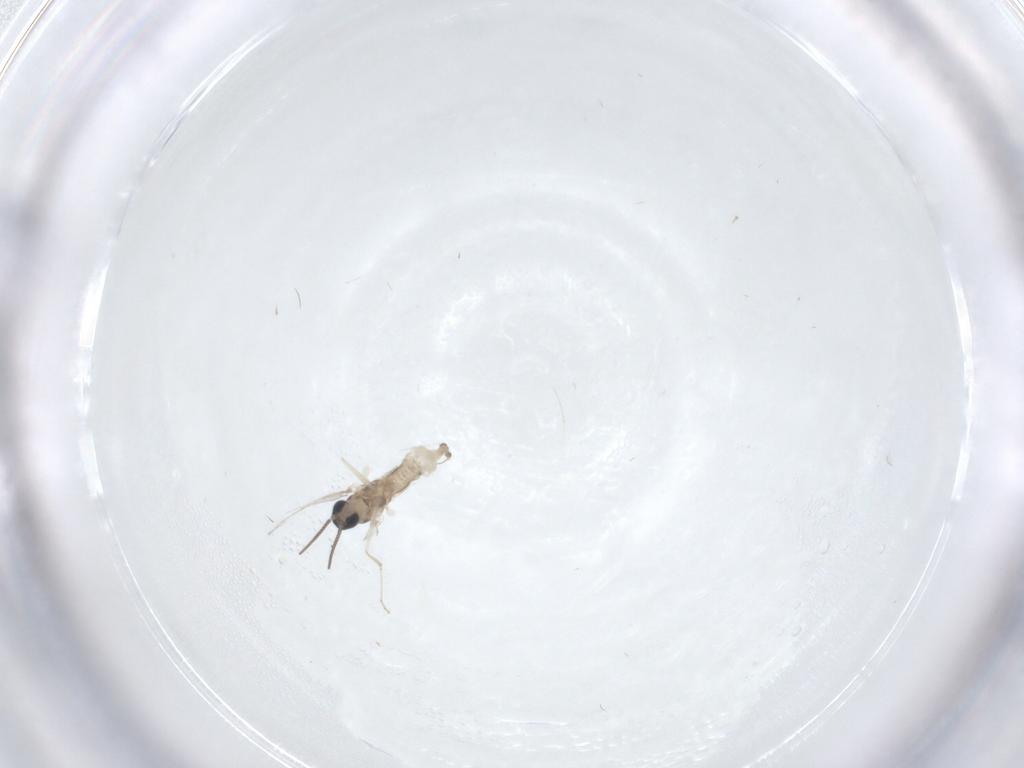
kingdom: Animalia
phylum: Arthropoda
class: Insecta
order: Diptera
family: Cecidomyiidae
